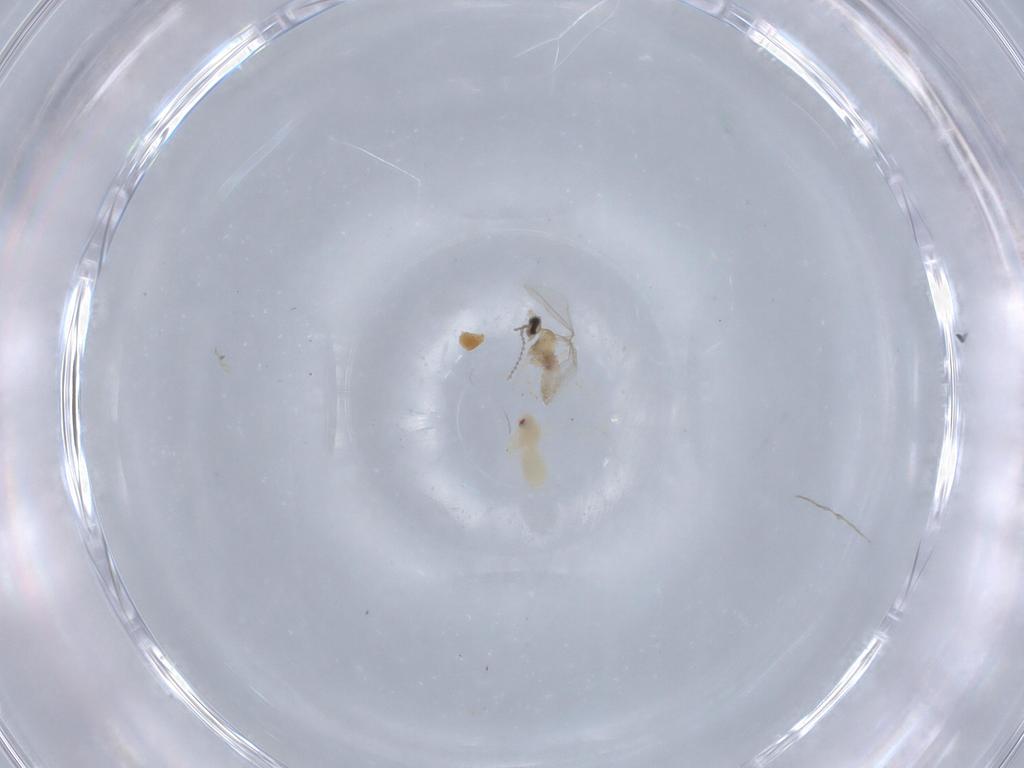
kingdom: Animalia
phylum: Arthropoda
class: Insecta
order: Hemiptera
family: Aleyrodidae
